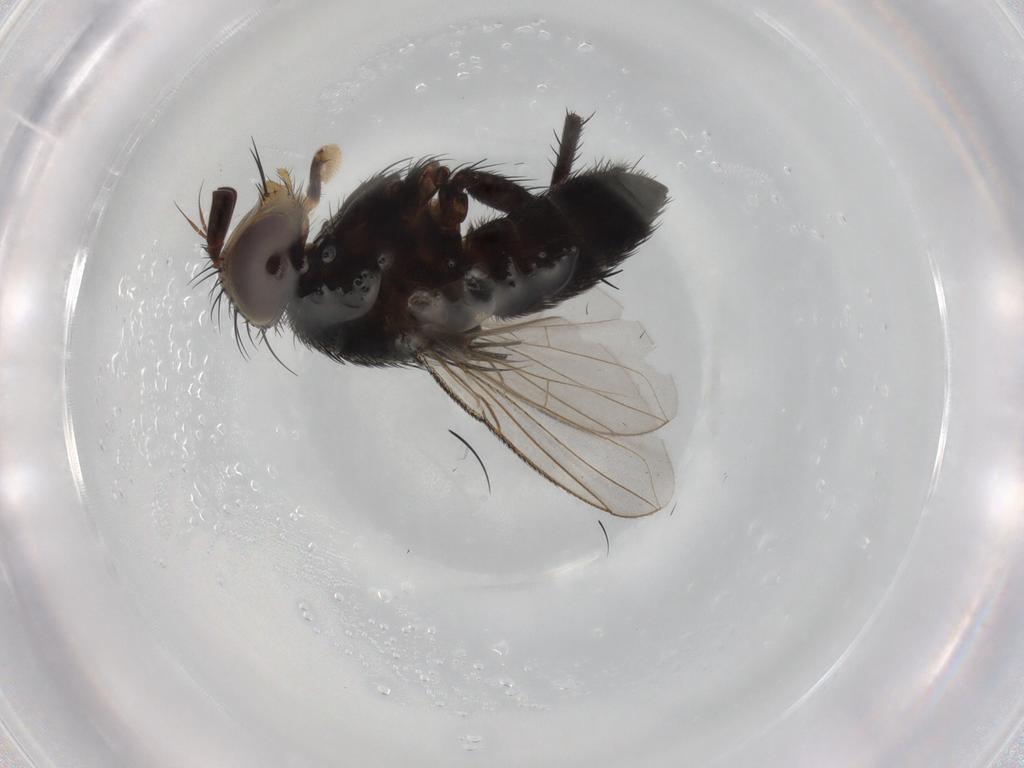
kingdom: Animalia
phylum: Arthropoda
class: Insecta
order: Diptera
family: Tachinidae
